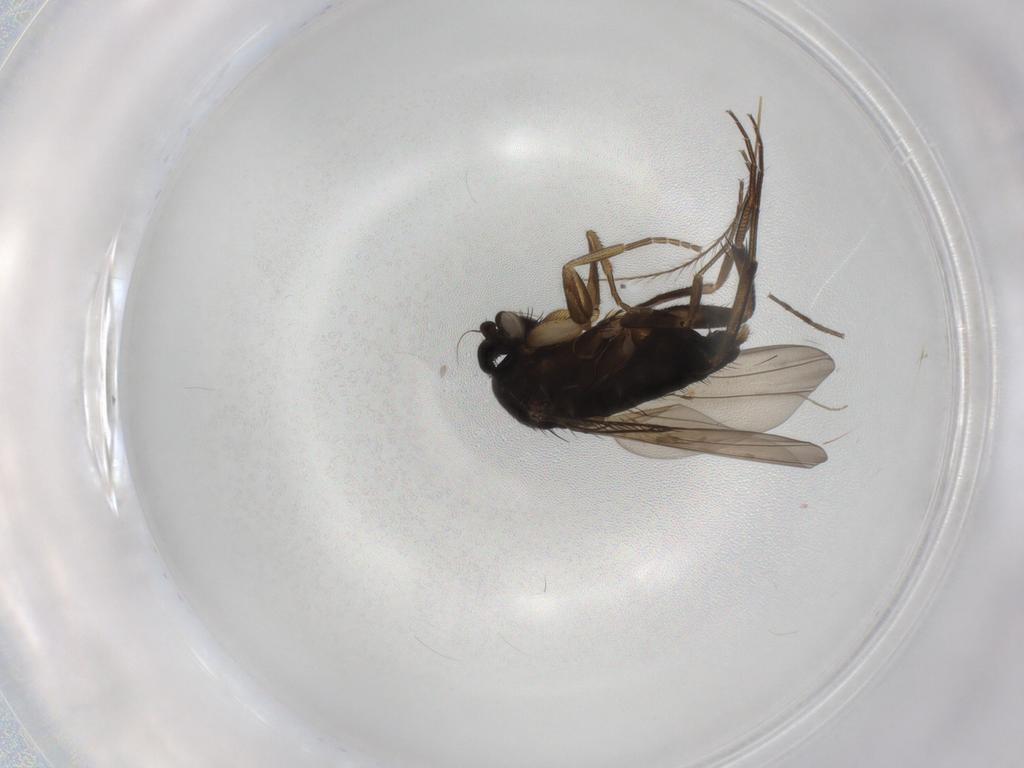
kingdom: Animalia
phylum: Arthropoda
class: Insecta
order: Diptera
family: Phoridae
